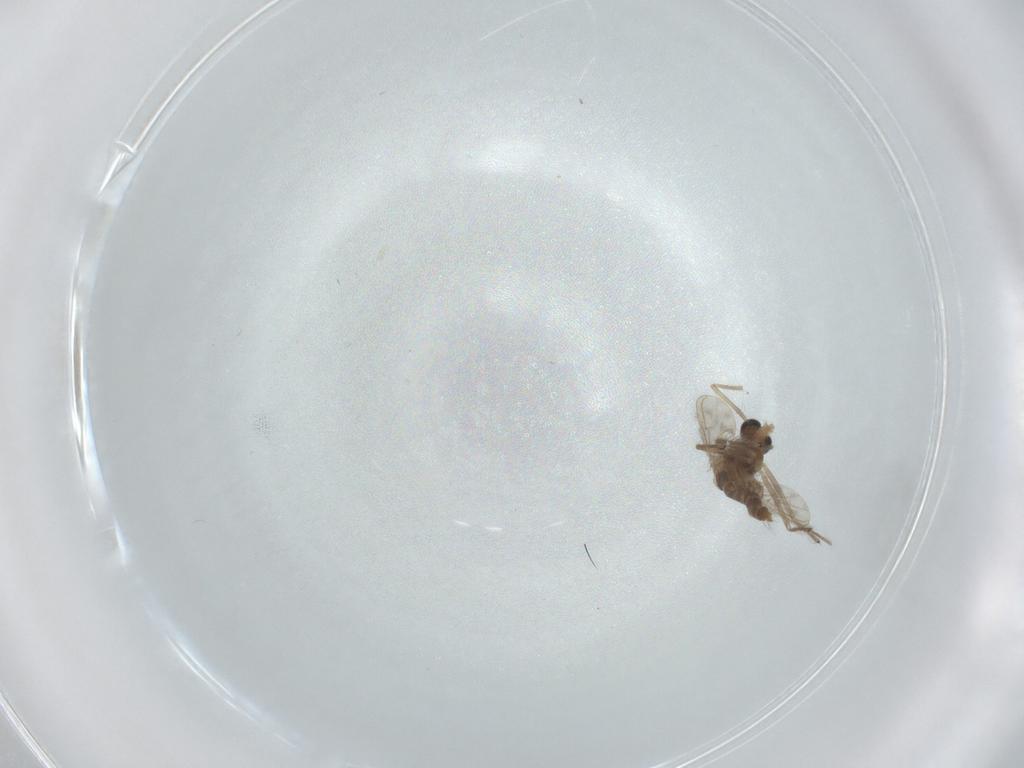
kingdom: Animalia
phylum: Arthropoda
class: Insecta
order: Diptera
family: Chironomidae
